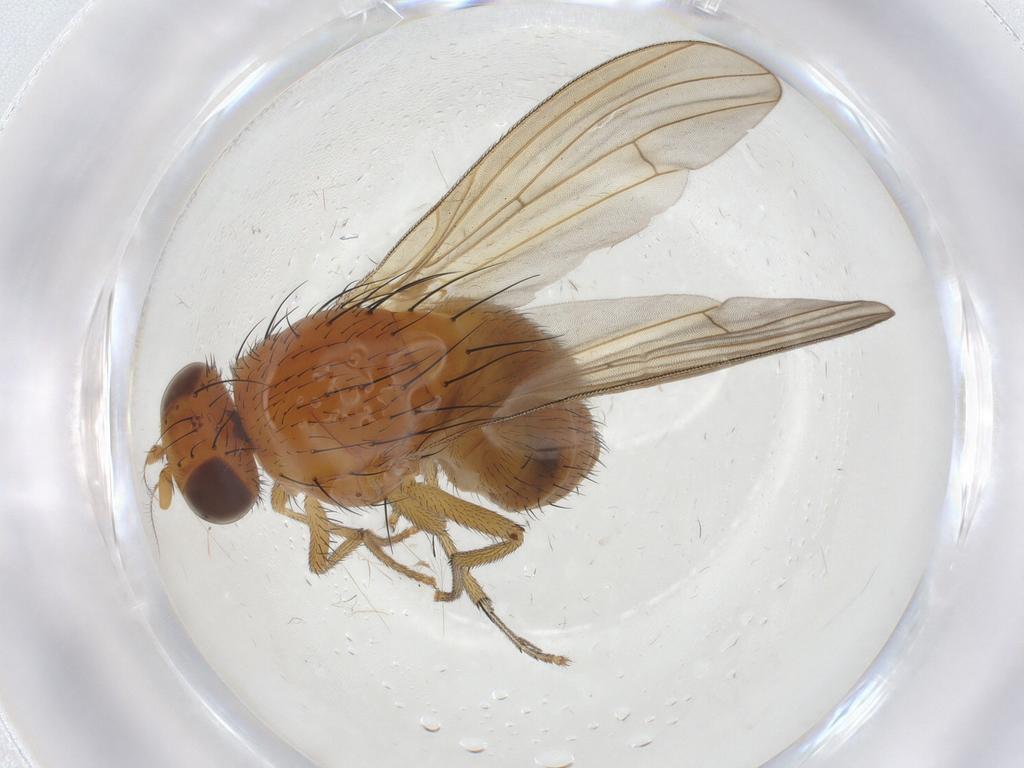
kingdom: Animalia
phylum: Arthropoda
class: Insecta
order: Diptera
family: Cecidomyiidae
